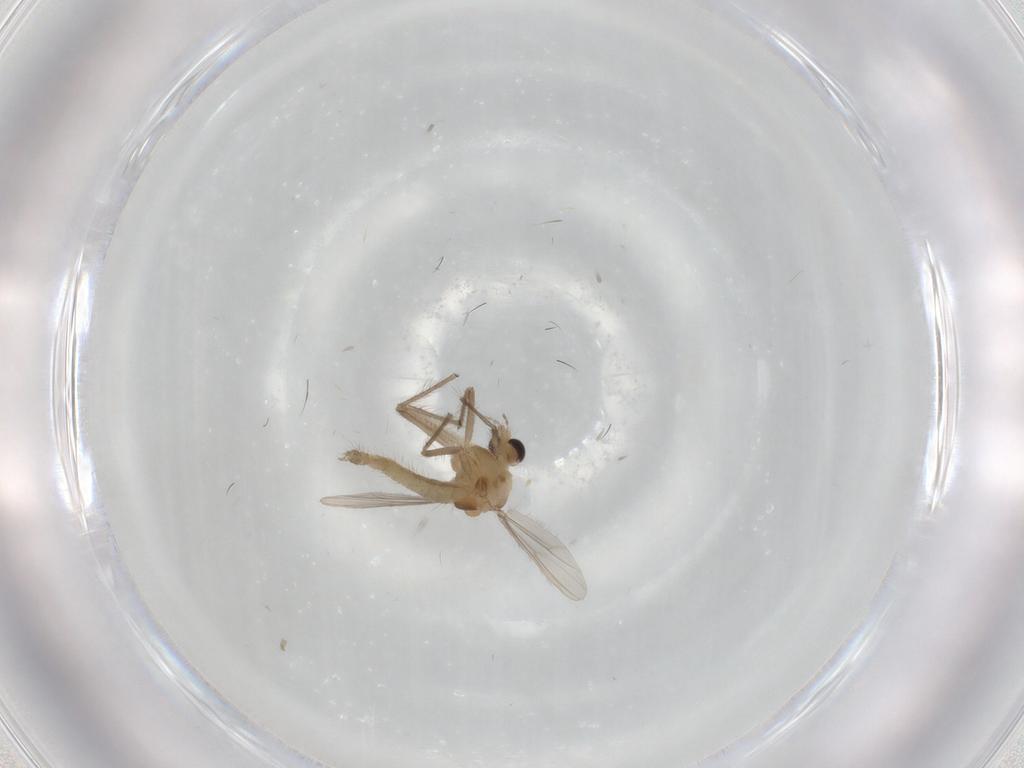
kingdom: Animalia
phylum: Arthropoda
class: Insecta
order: Diptera
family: Chironomidae
